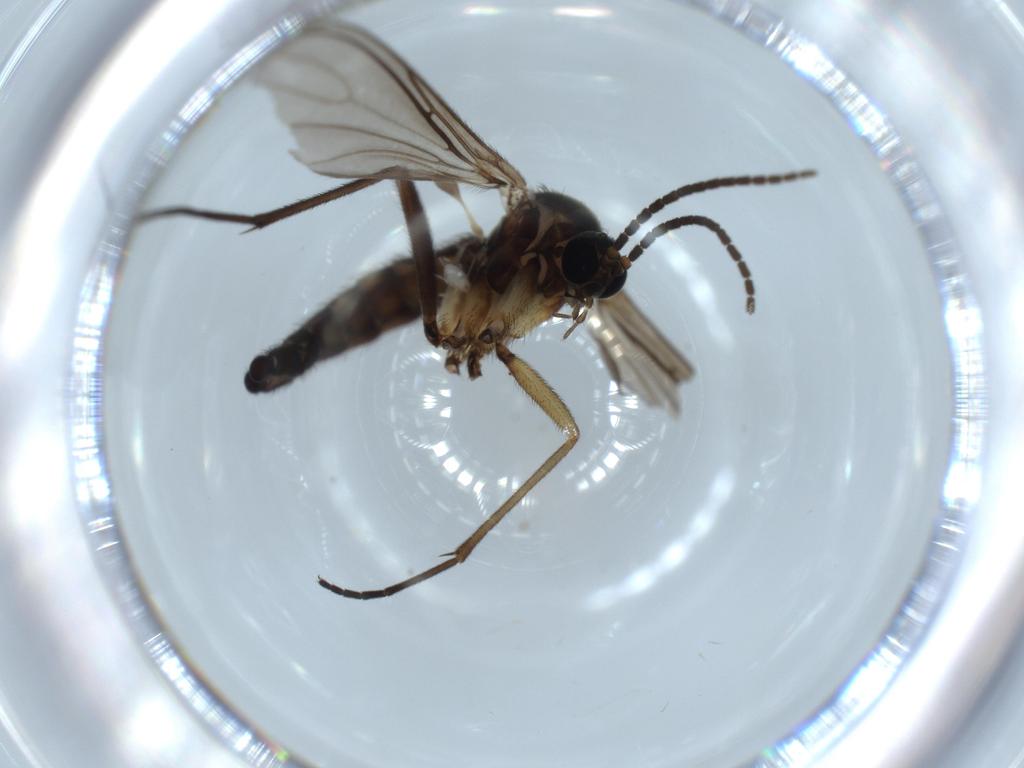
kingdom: Animalia
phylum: Arthropoda
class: Insecta
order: Diptera
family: Sciaridae
